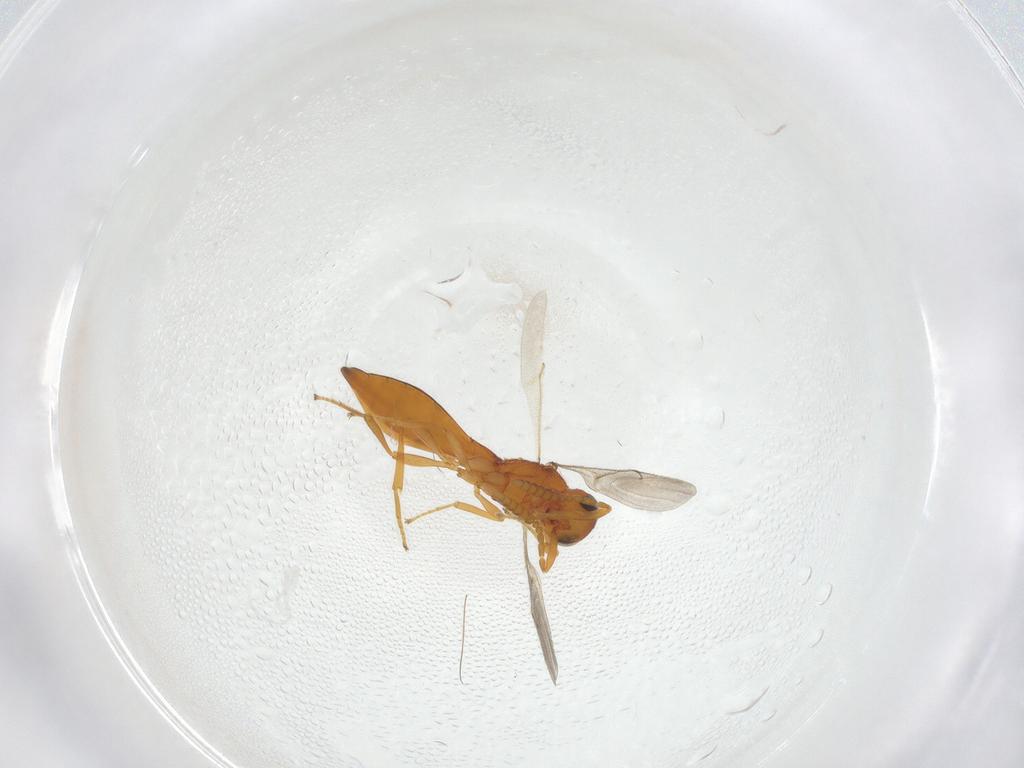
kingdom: Animalia
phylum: Arthropoda
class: Insecta
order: Hymenoptera
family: Scelionidae
